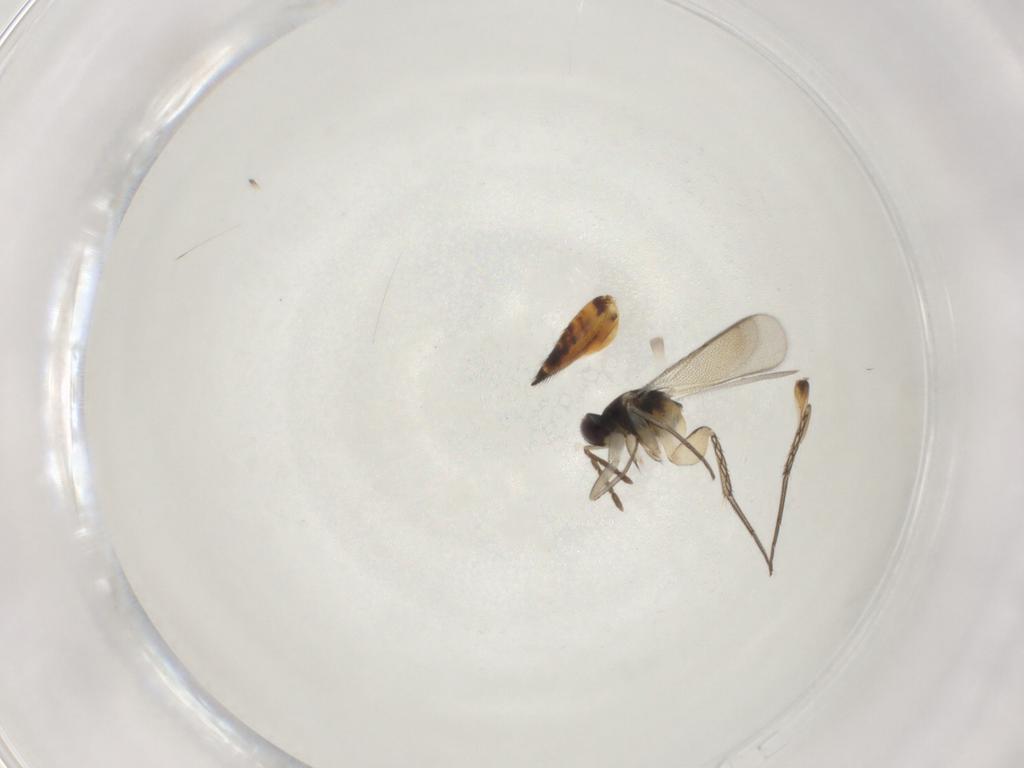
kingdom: Animalia
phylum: Arthropoda
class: Insecta
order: Hymenoptera
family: Eulophidae
